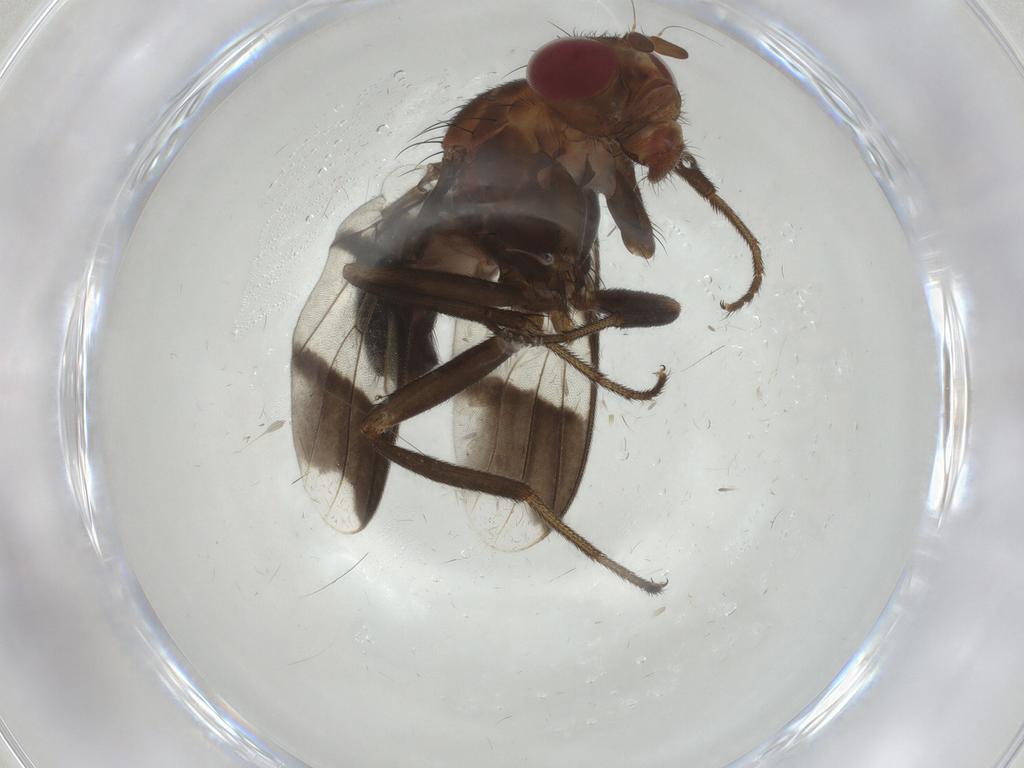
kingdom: Animalia
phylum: Arthropoda
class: Insecta
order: Diptera
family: Richardiidae
